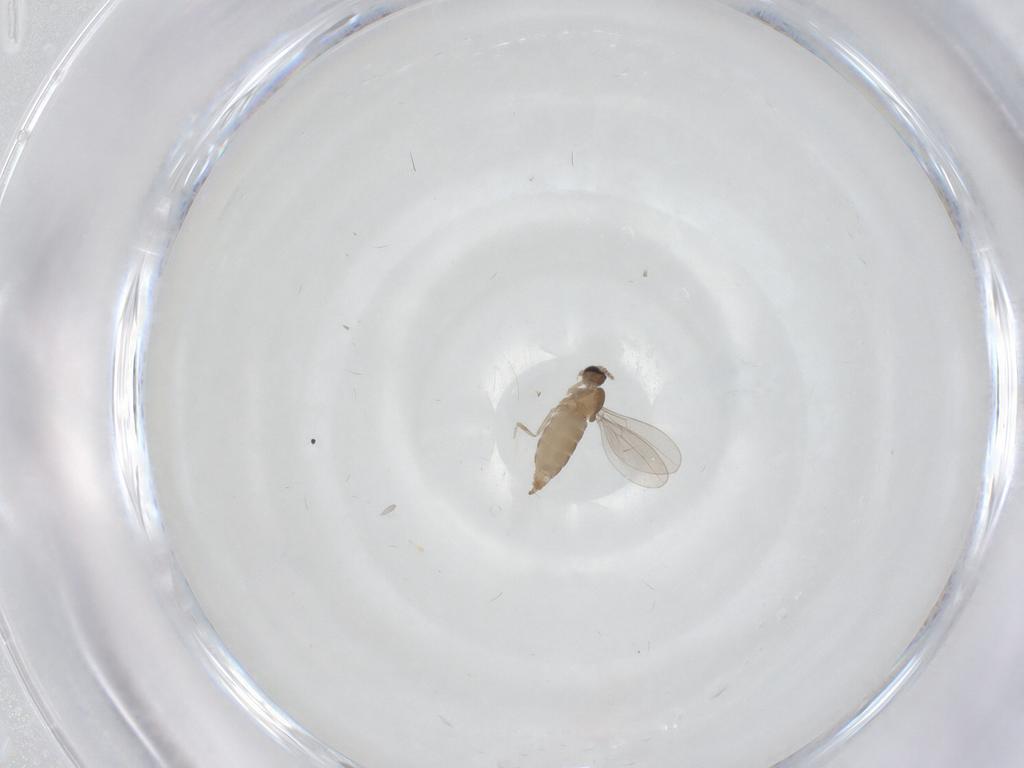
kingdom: Animalia
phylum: Arthropoda
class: Insecta
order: Diptera
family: Cecidomyiidae
